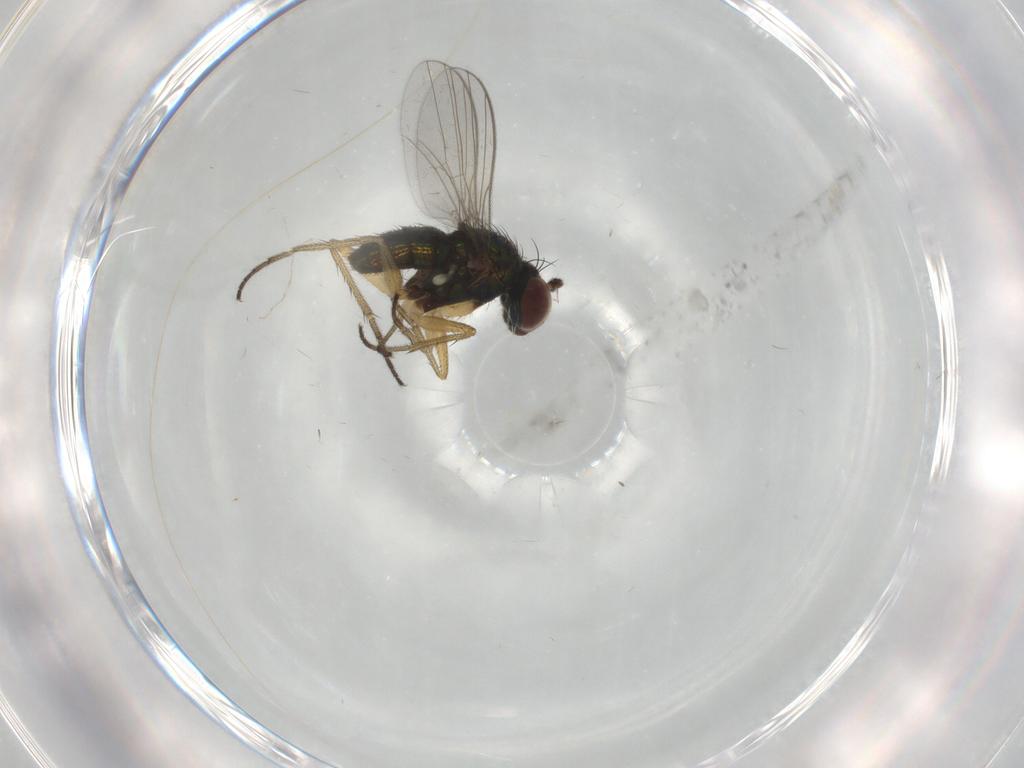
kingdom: Animalia
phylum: Arthropoda
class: Insecta
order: Diptera
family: Dolichopodidae
